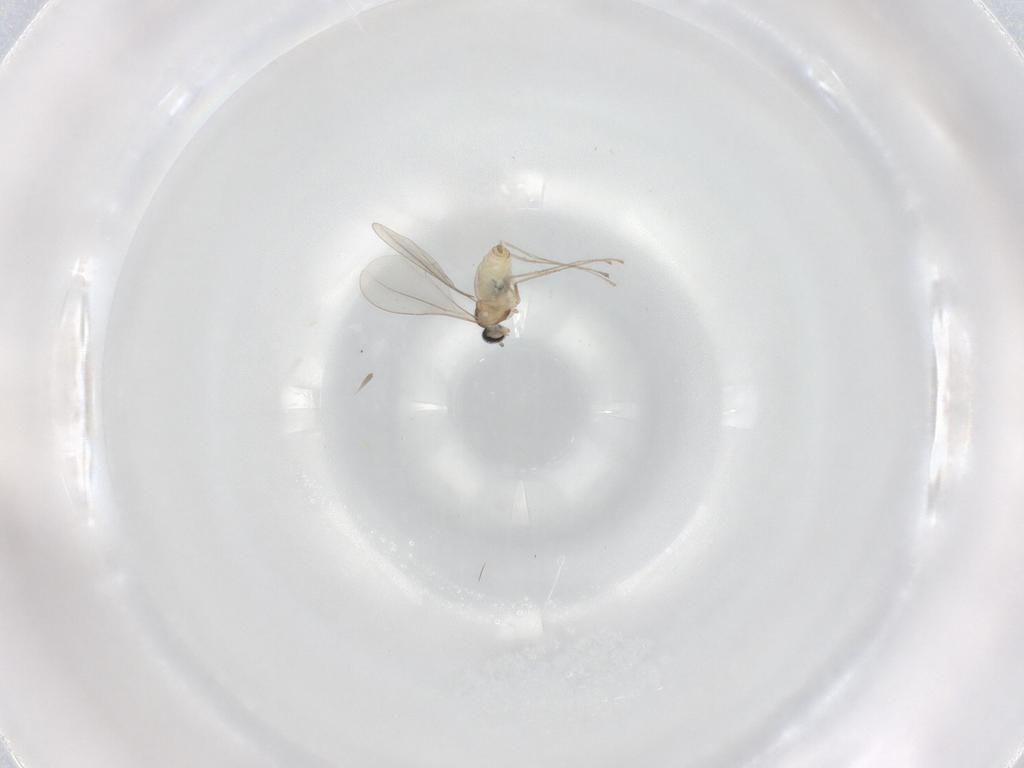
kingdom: Animalia
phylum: Arthropoda
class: Insecta
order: Diptera
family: Cecidomyiidae
